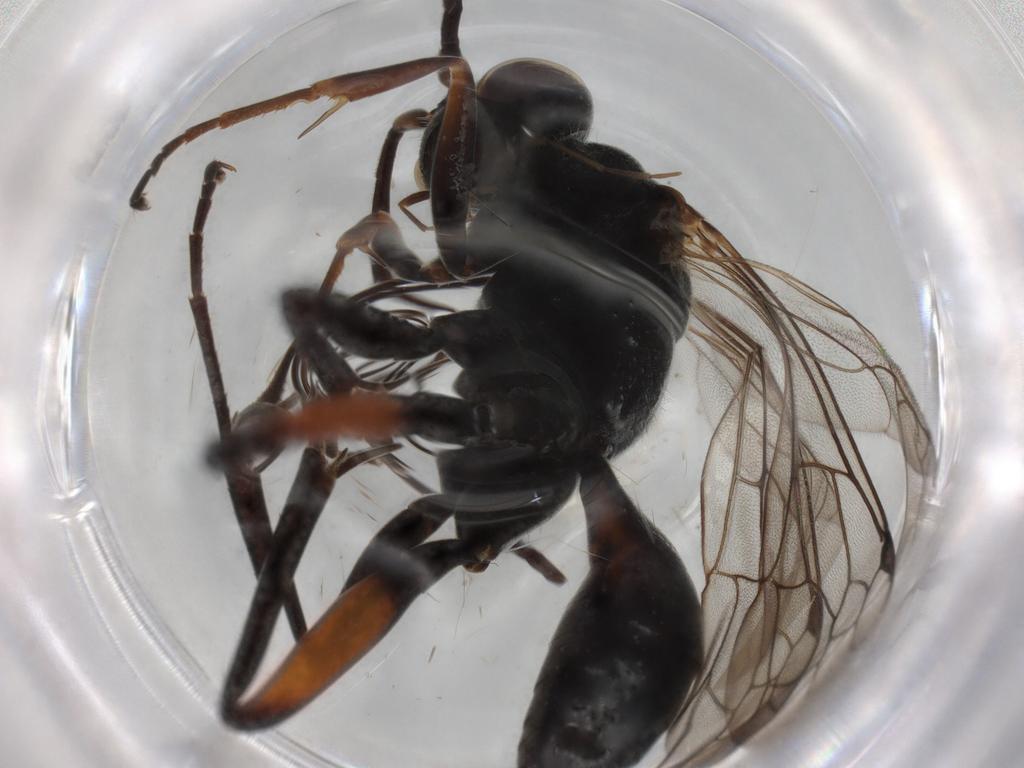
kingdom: Animalia
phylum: Arthropoda
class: Insecta
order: Hymenoptera
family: Pompilidae
